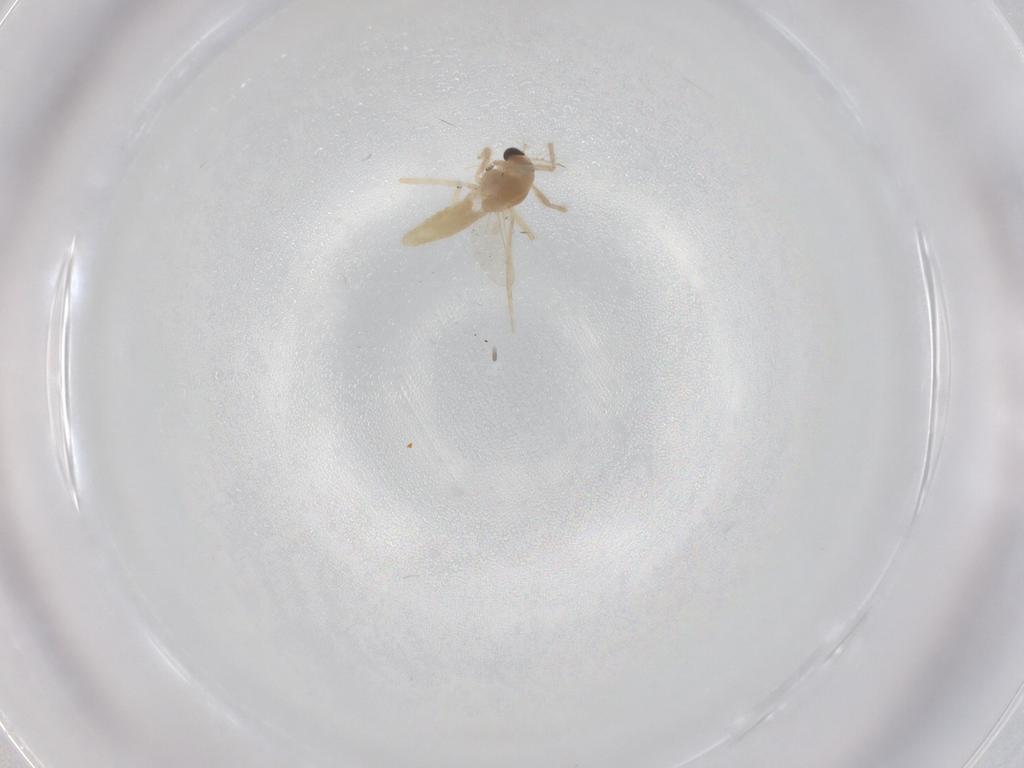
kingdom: Animalia
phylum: Arthropoda
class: Insecta
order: Diptera
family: Chironomidae
